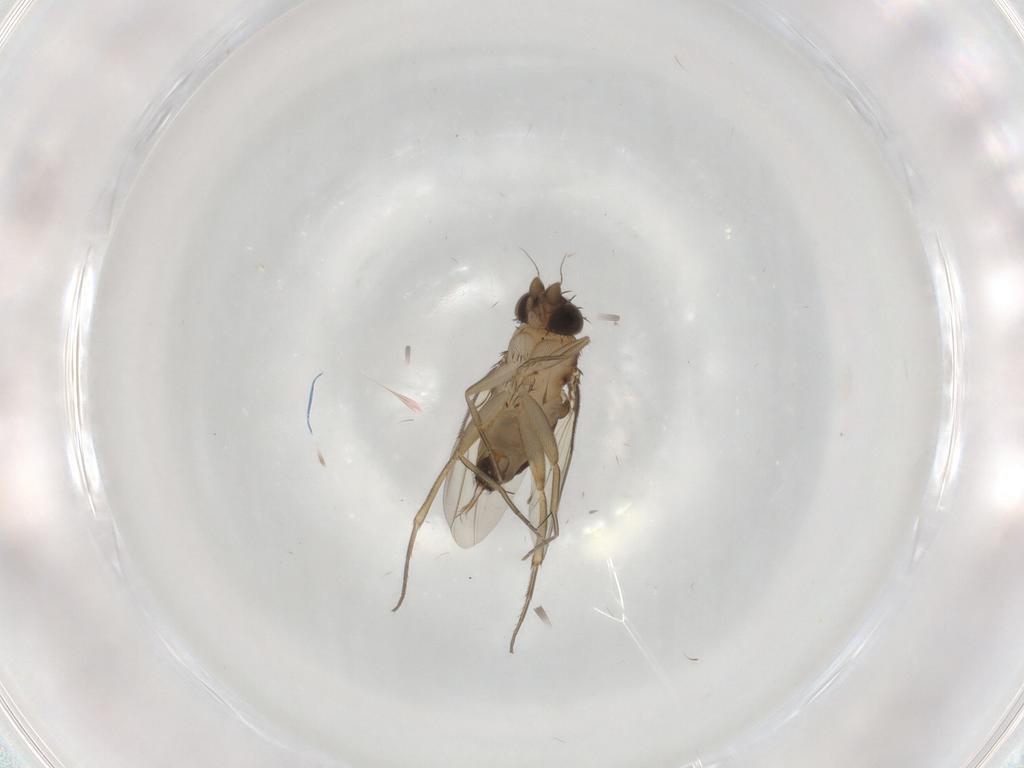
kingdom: Animalia
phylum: Arthropoda
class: Insecta
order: Diptera
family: Phoridae
